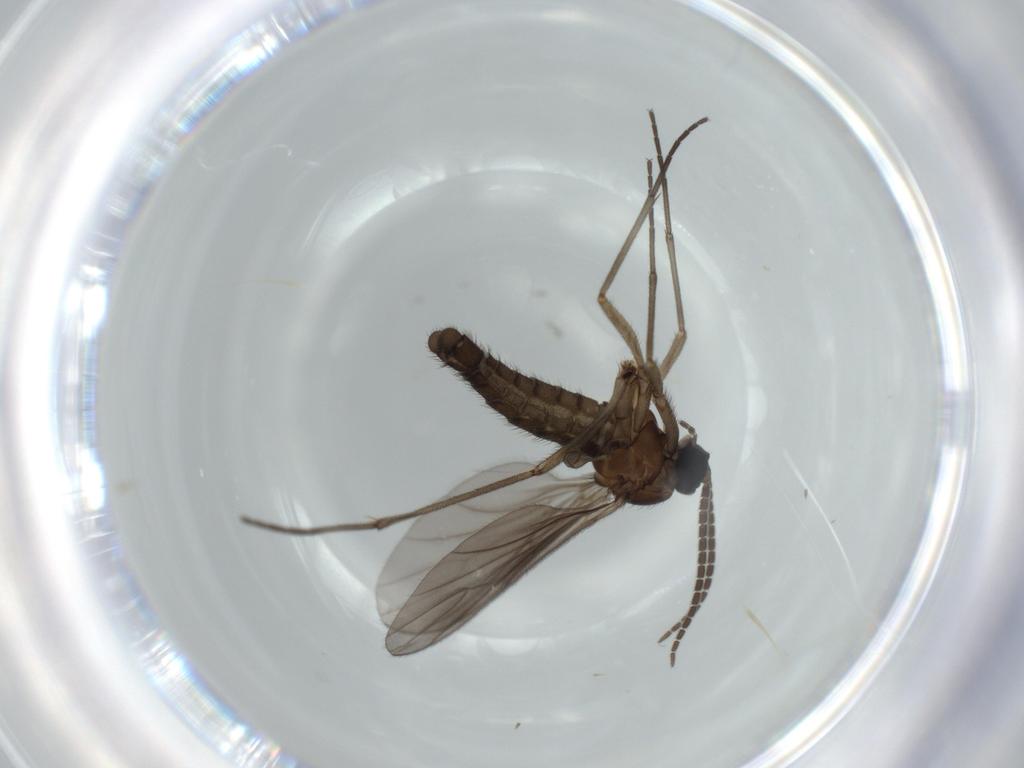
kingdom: Animalia
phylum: Arthropoda
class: Insecta
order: Diptera
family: Sciaridae
